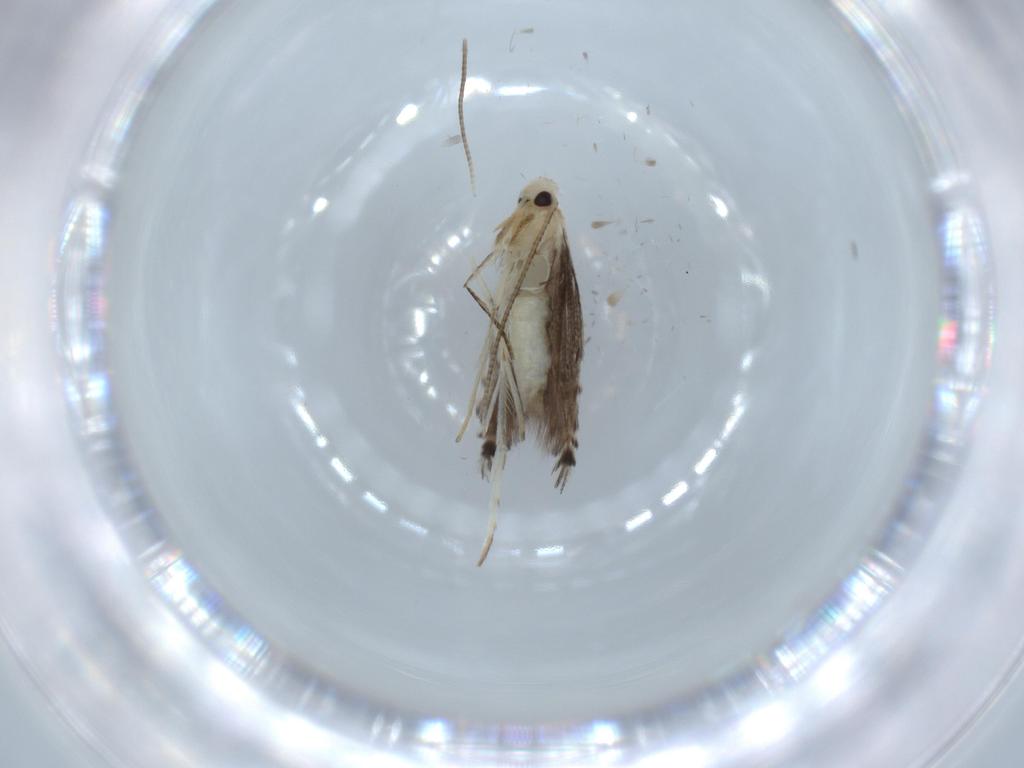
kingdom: Animalia
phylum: Arthropoda
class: Insecta
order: Lepidoptera
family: Gracillariidae
